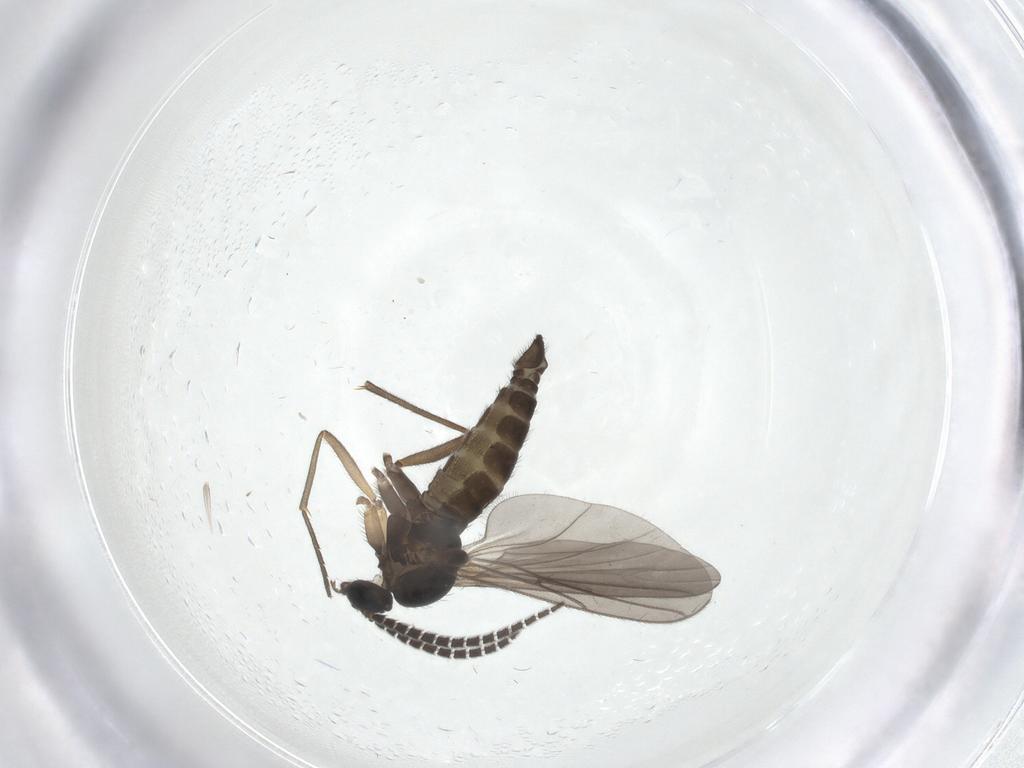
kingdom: Animalia
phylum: Arthropoda
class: Insecta
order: Diptera
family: Sciaridae
